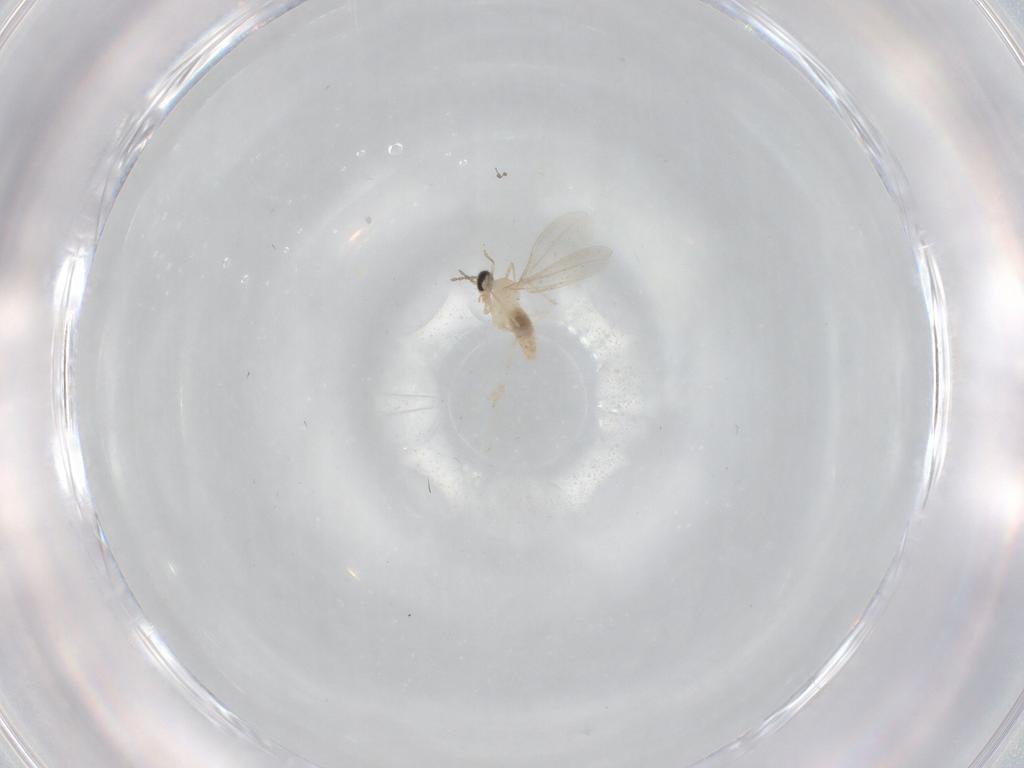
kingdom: Animalia
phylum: Arthropoda
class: Insecta
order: Diptera
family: Cecidomyiidae
